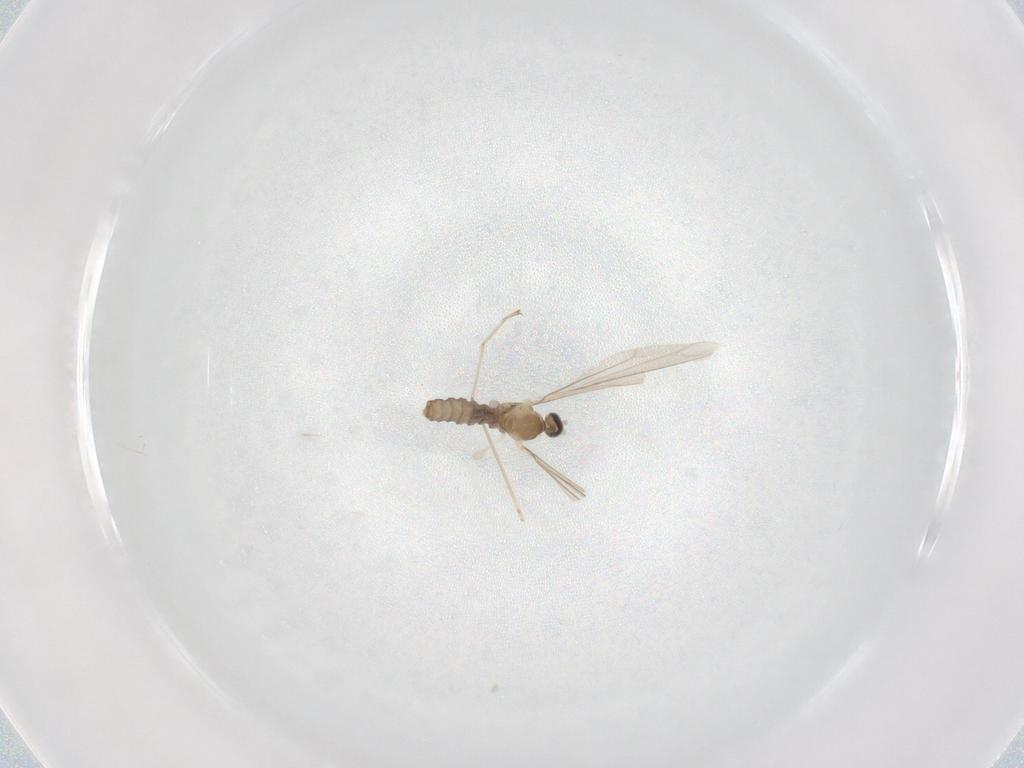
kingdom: Animalia
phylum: Arthropoda
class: Insecta
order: Diptera
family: Cecidomyiidae
